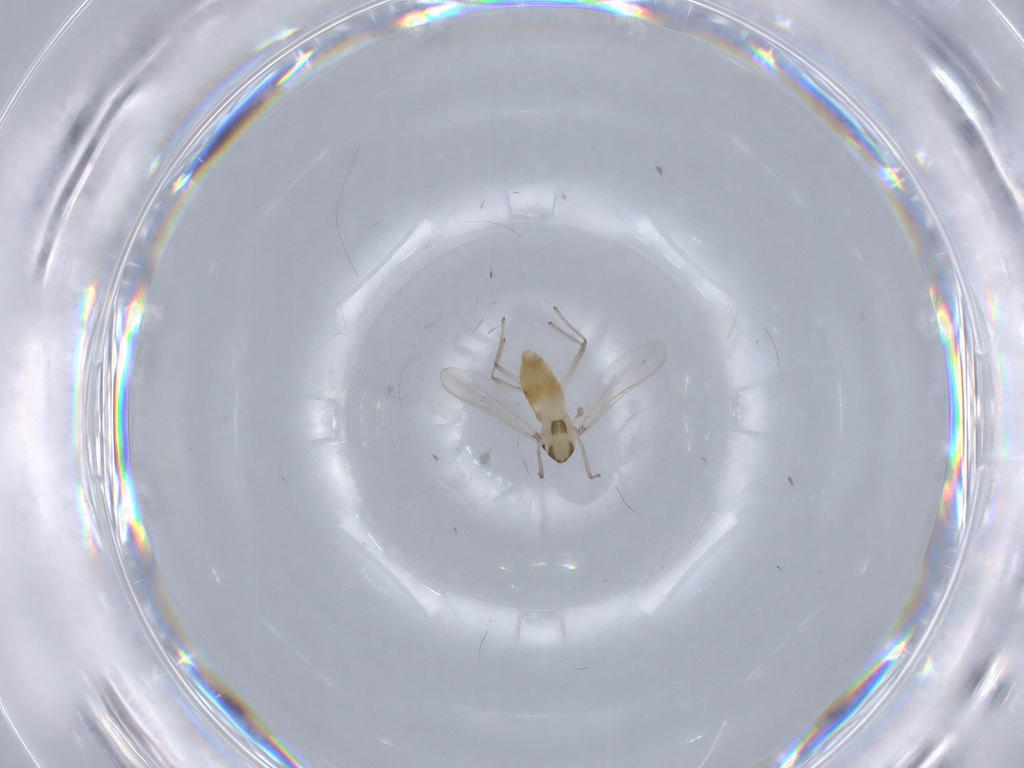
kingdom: Animalia
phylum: Arthropoda
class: Insecta
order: Diptera
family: Chironomidae
